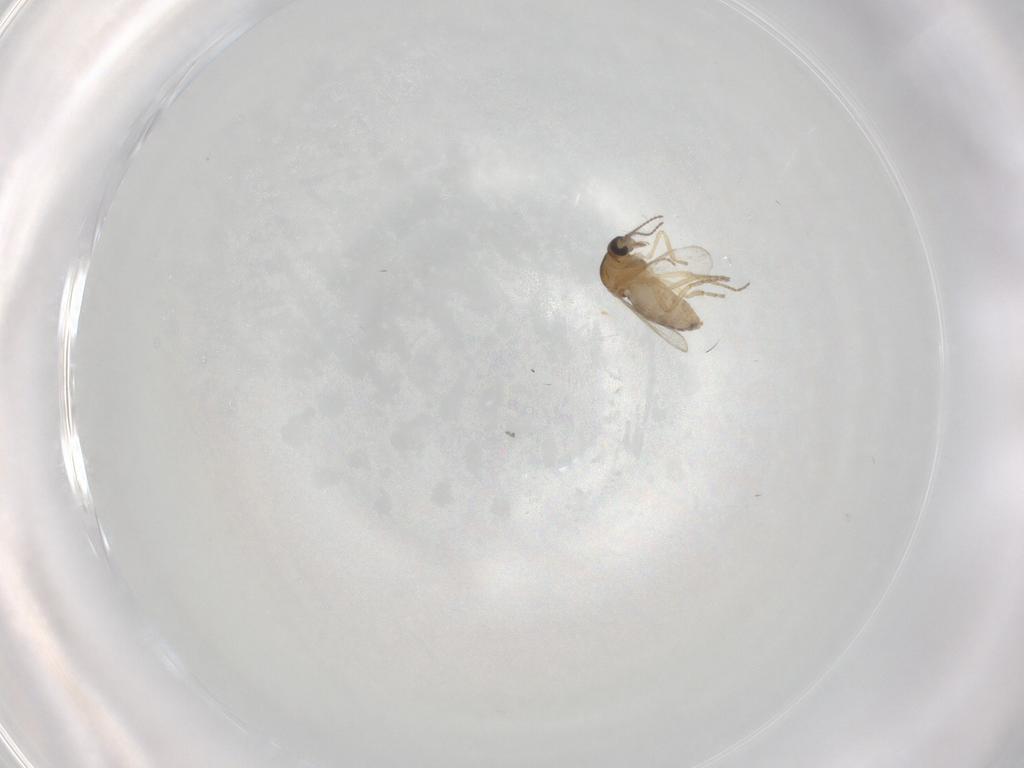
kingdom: Animalia
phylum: Arthropoda
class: Insecta
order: Diptera
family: Ceratopogonidae
